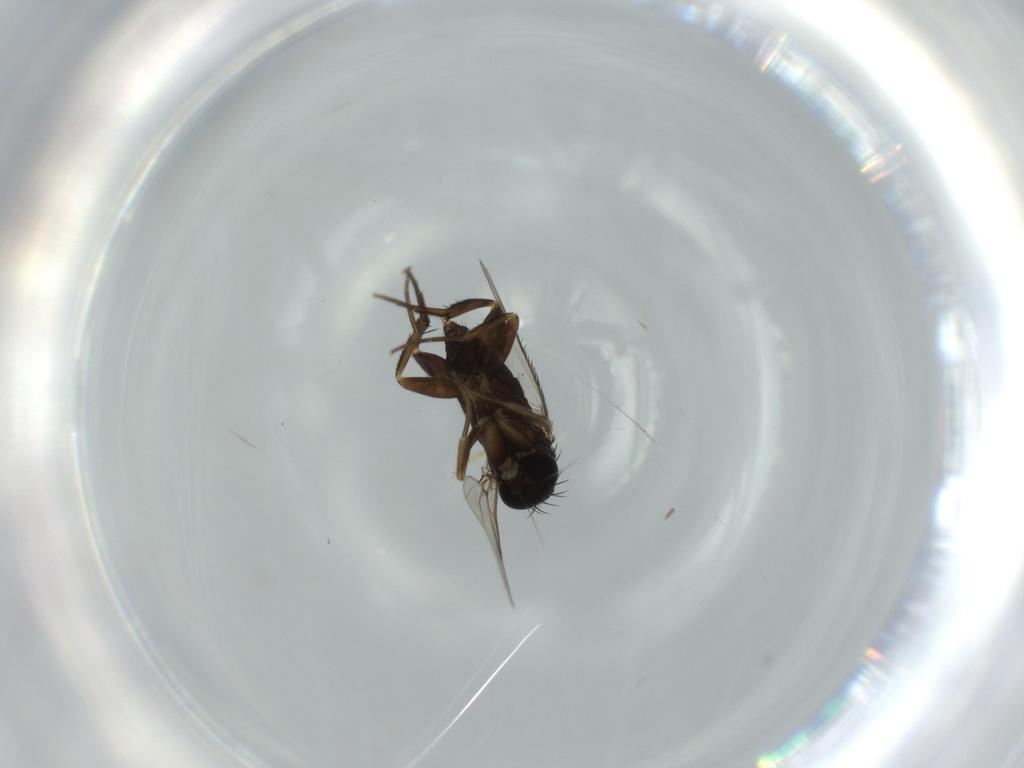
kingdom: Animalia
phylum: Arthropoda
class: Insecta
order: Diptera
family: Phoridae
